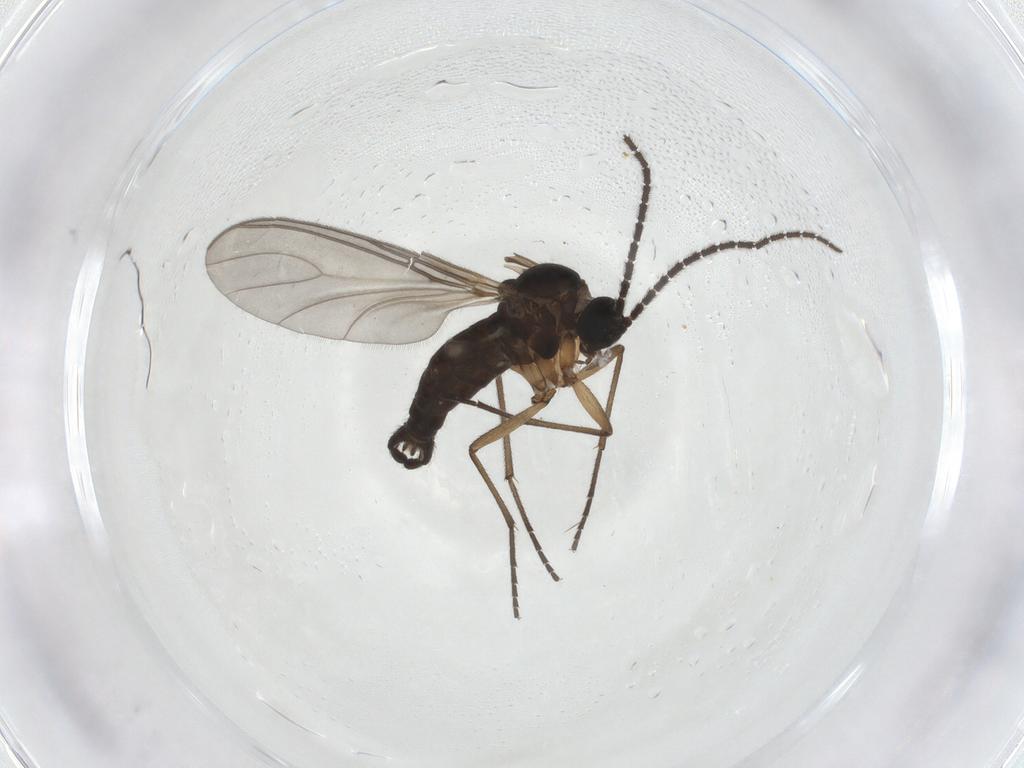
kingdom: Animalia
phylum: Arthropoda
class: Insecta
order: Diptera
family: Sciaridae
